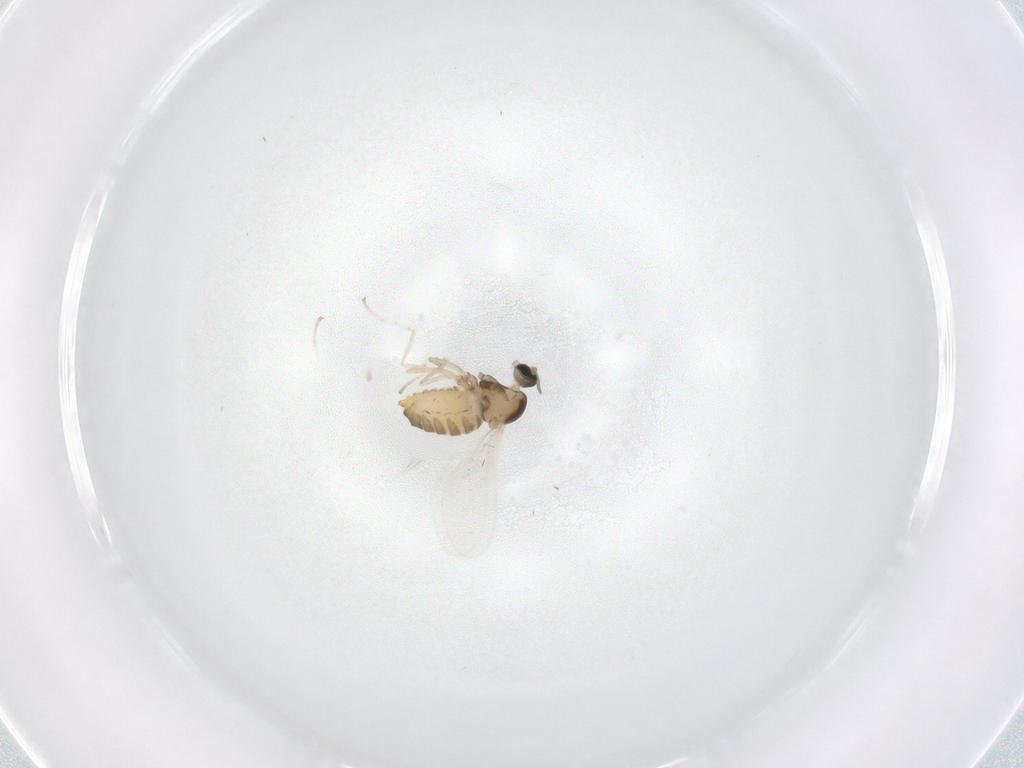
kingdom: Animalia
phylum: Arthropoda
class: Insecta
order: Diptera
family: Cecidomyiidae
